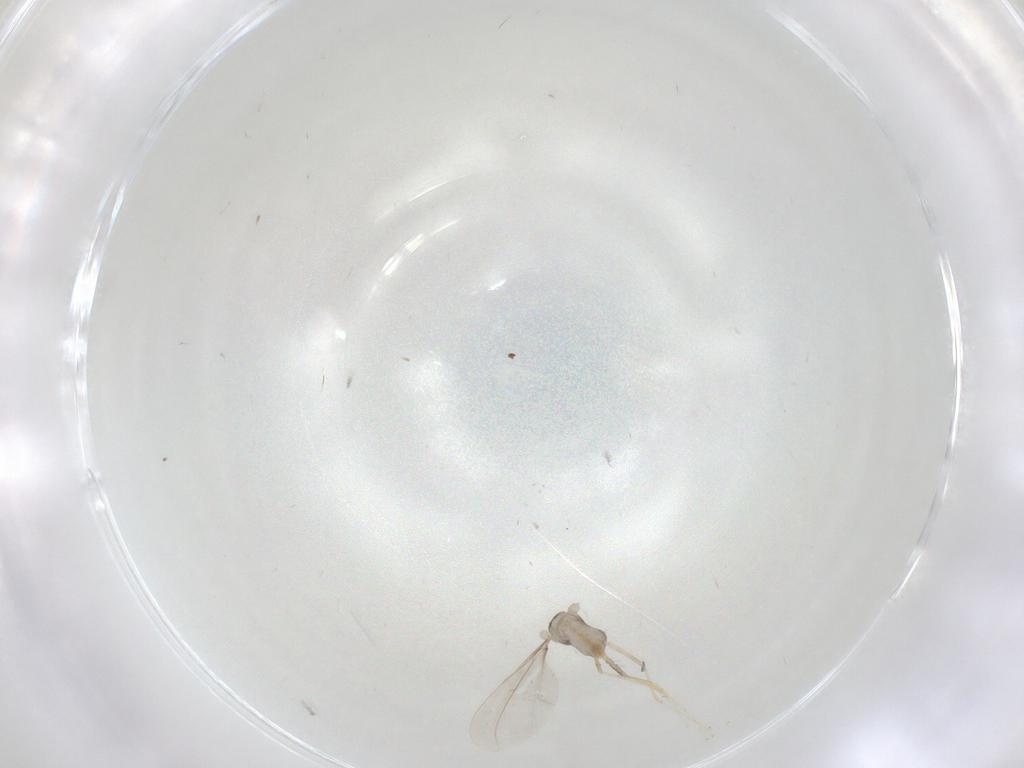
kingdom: Animalia
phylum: Arthropoda
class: Insecta
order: Diptera
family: Cecidomyiidae
